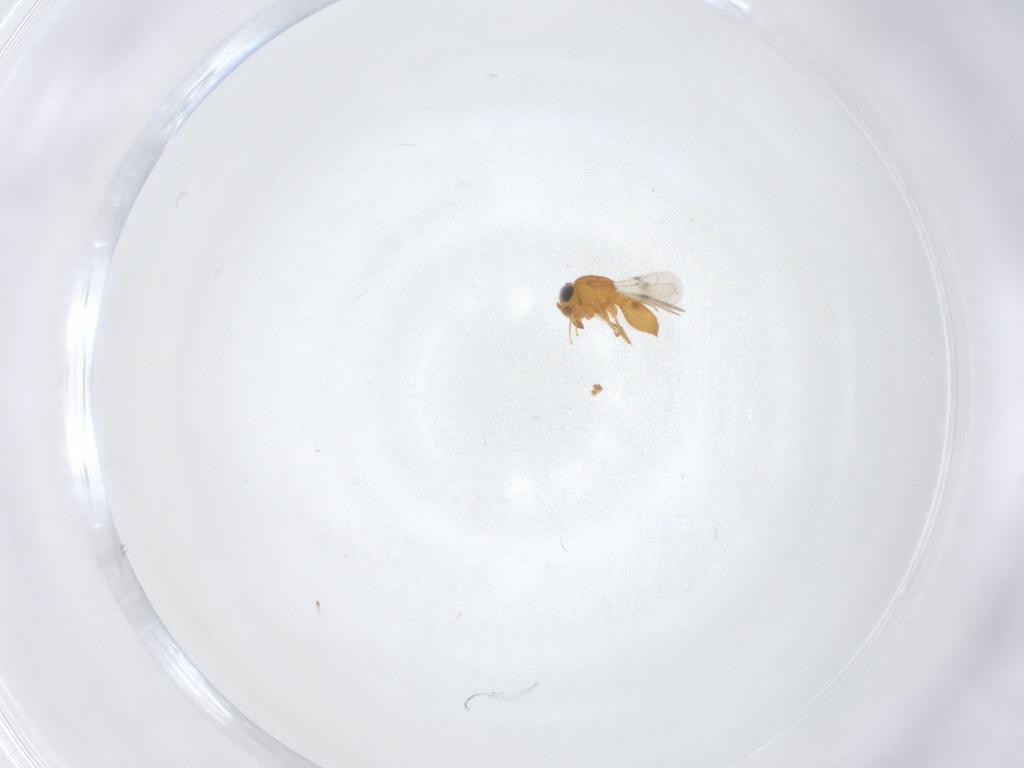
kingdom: Animalia
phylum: Arthropoda
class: Insecta
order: Hymenoptera
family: Scelionidae
